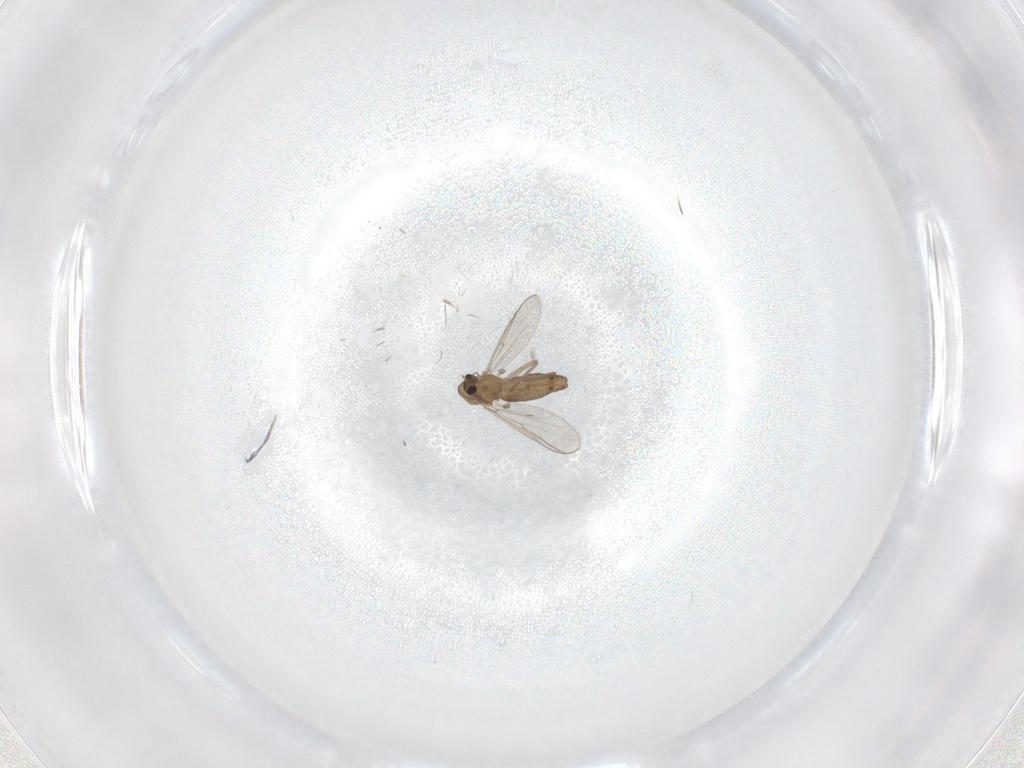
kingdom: Animalia
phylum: Arthropoda
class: Insecta
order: Diptera
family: Chironomidae
